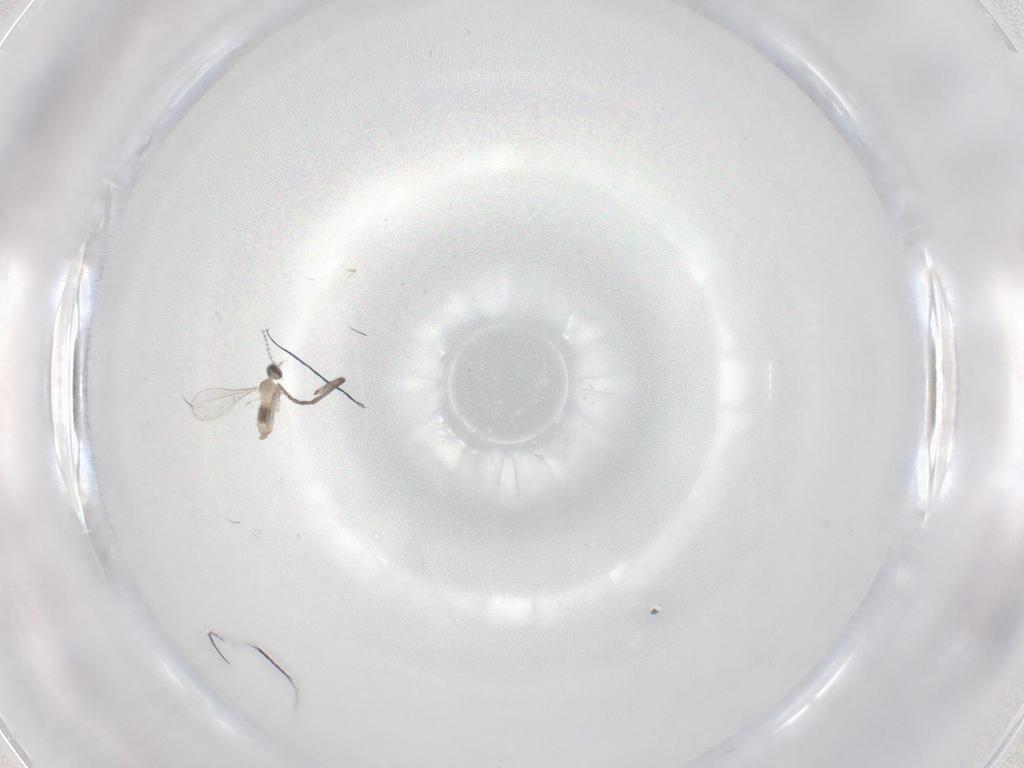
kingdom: Animalia
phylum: Arthropoda
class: Insecta
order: Diptera
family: Cecidomyiidae
